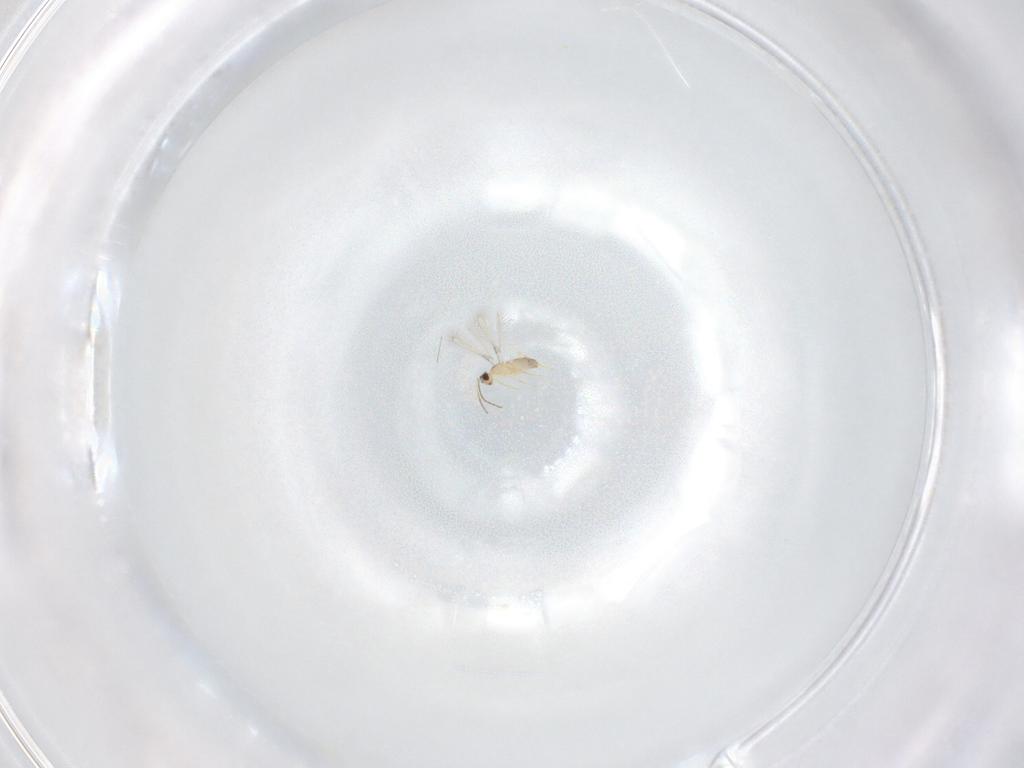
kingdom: Animalia
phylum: Arthropoda
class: Insecta
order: Hymenoptera
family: Mymaridae
